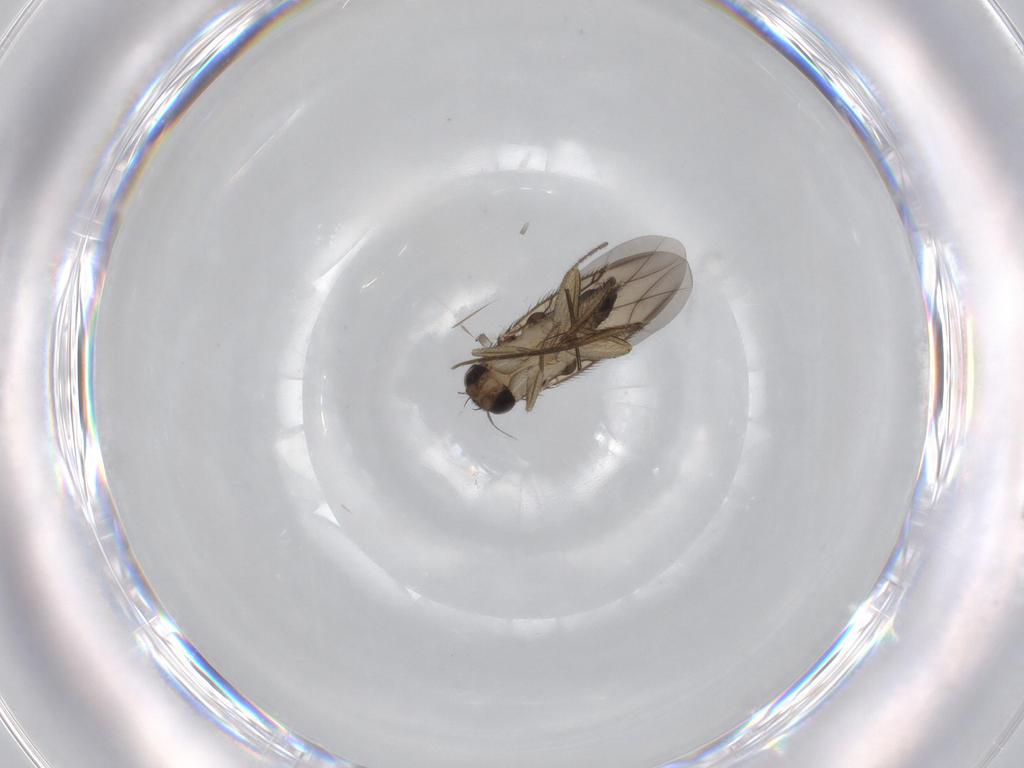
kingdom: Animalia
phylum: Arthropoda
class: Insecta
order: Diptera
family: Phoridae
